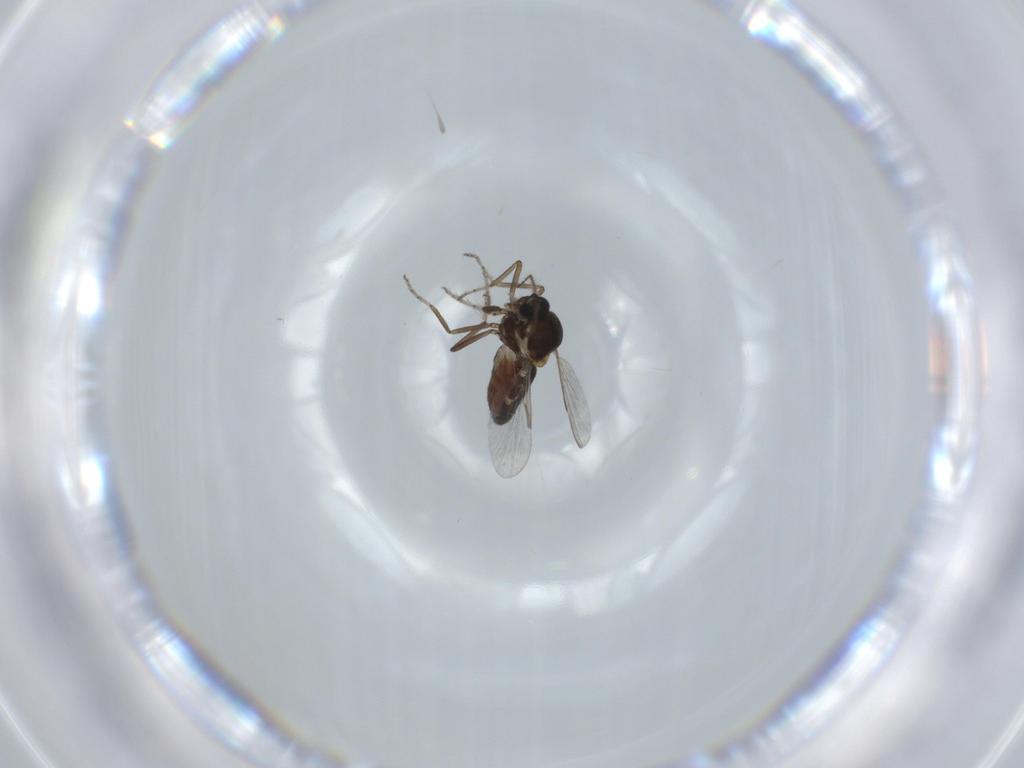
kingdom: Animalia
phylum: Arthropoda
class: Insecta
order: Diptera
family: Ceratopogonidae
